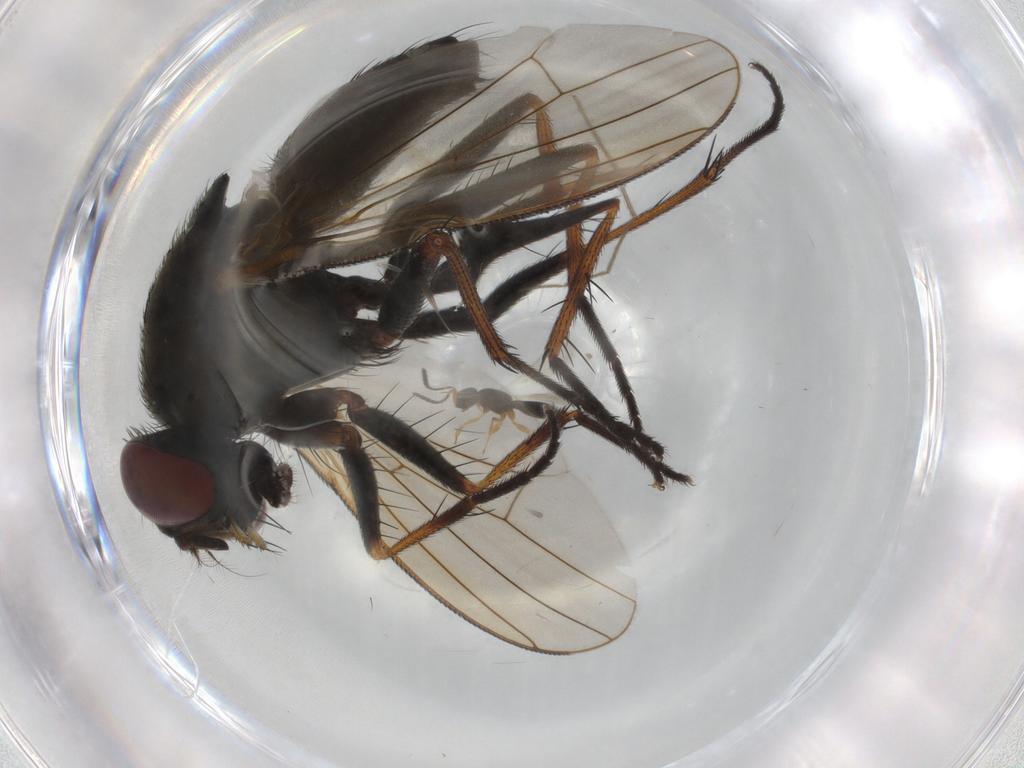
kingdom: Animalia
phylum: Arthropoda
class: Insecta
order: Diptera
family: Muscidae
